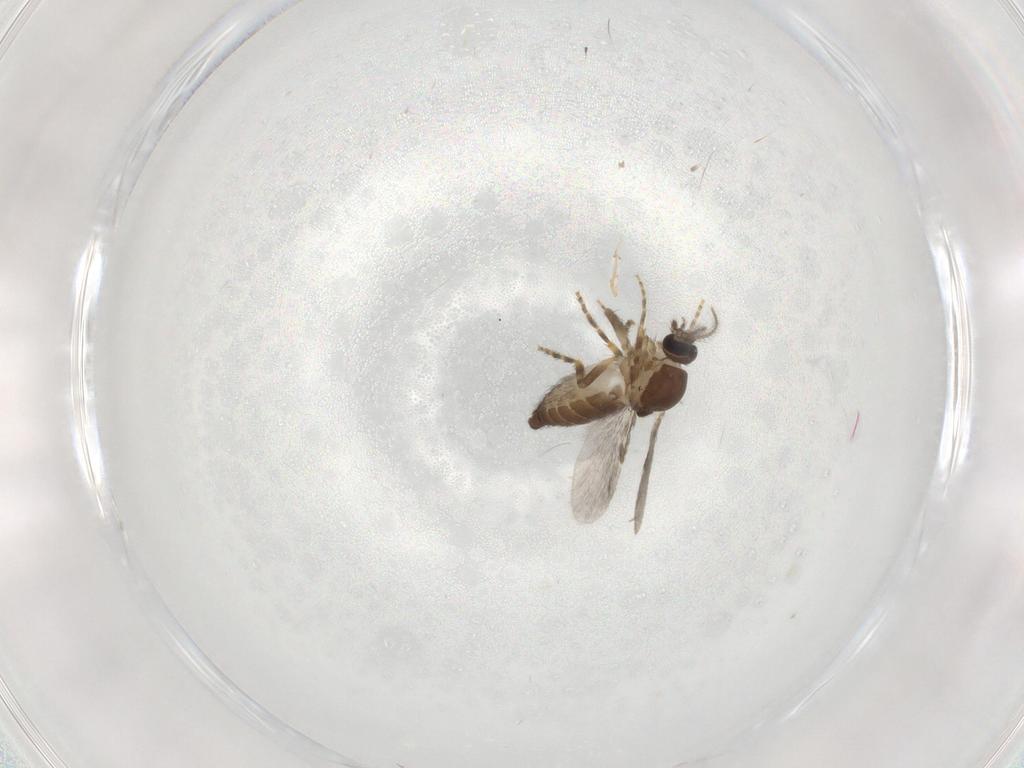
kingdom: Animalia
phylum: Arthropoda
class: Insecta
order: Diptera
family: Ceratopogonidae
